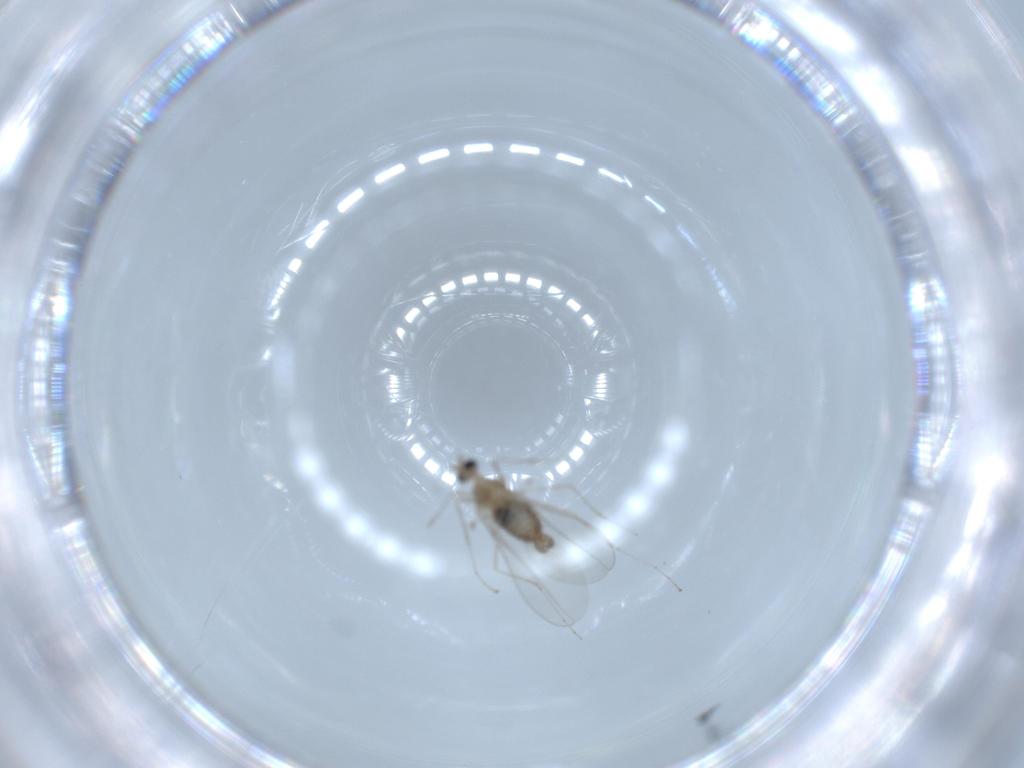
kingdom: Animalia
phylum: Arthropoda
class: Insecta
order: Diptera
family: Cecidomyiidae
